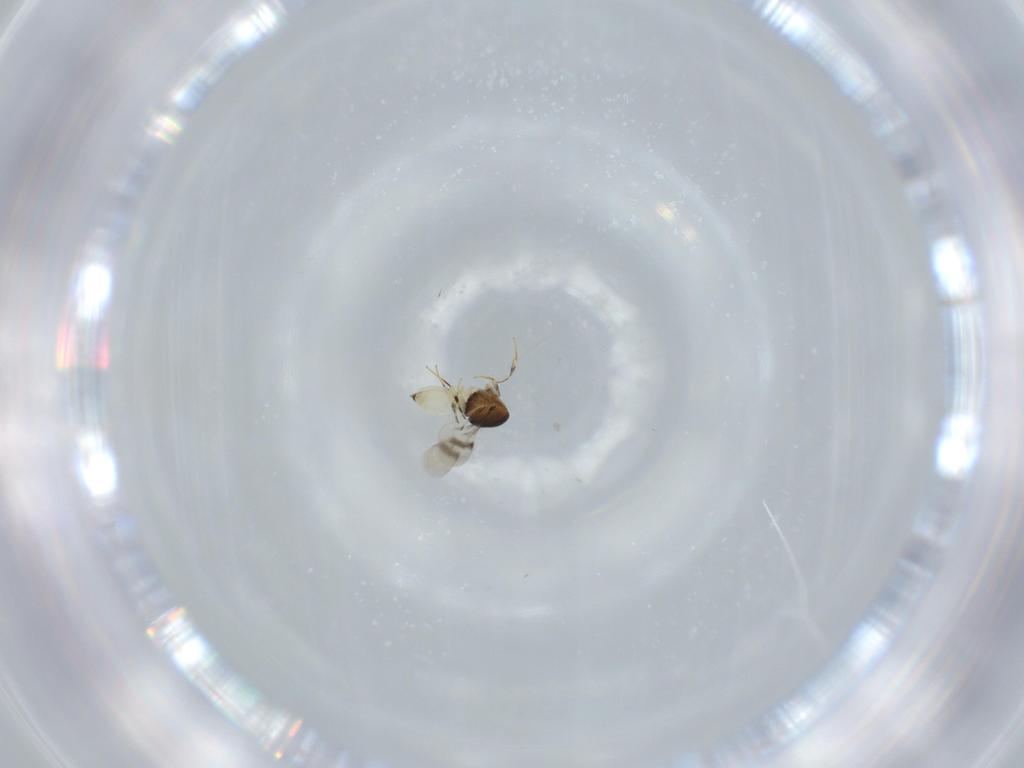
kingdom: Animalia
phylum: Arthropoda
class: Insecta
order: Hymenoptera
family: Scelionidae
